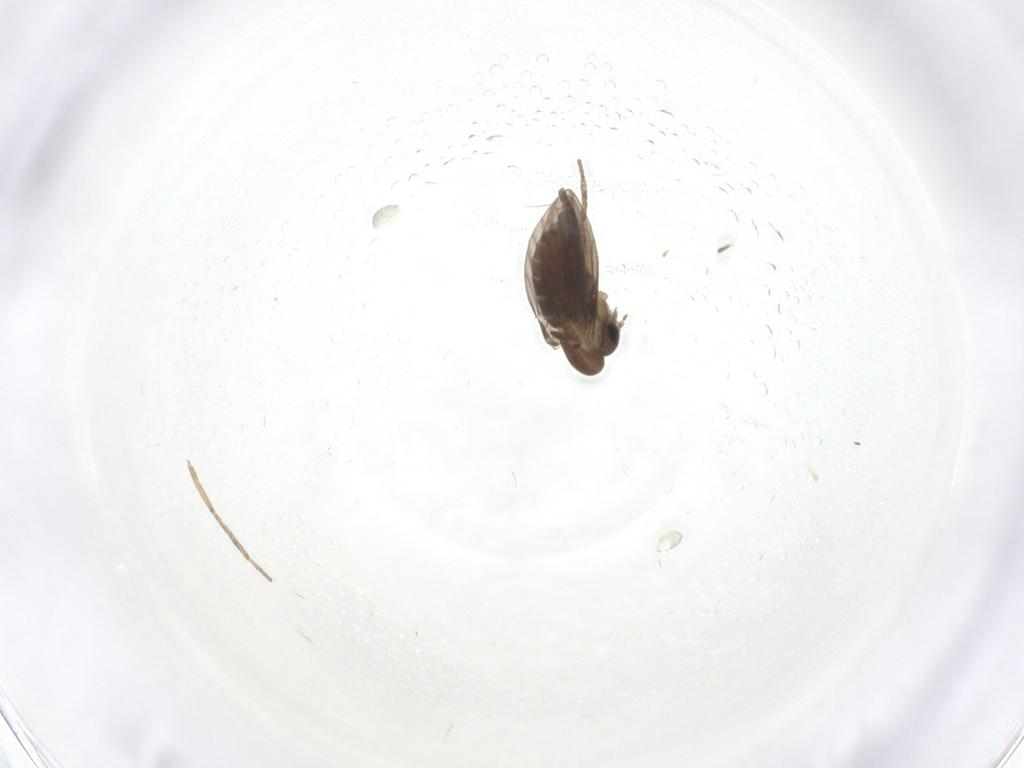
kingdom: Animalia
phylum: Arthropoda
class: Insecta
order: Diptera
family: Psychodidae
